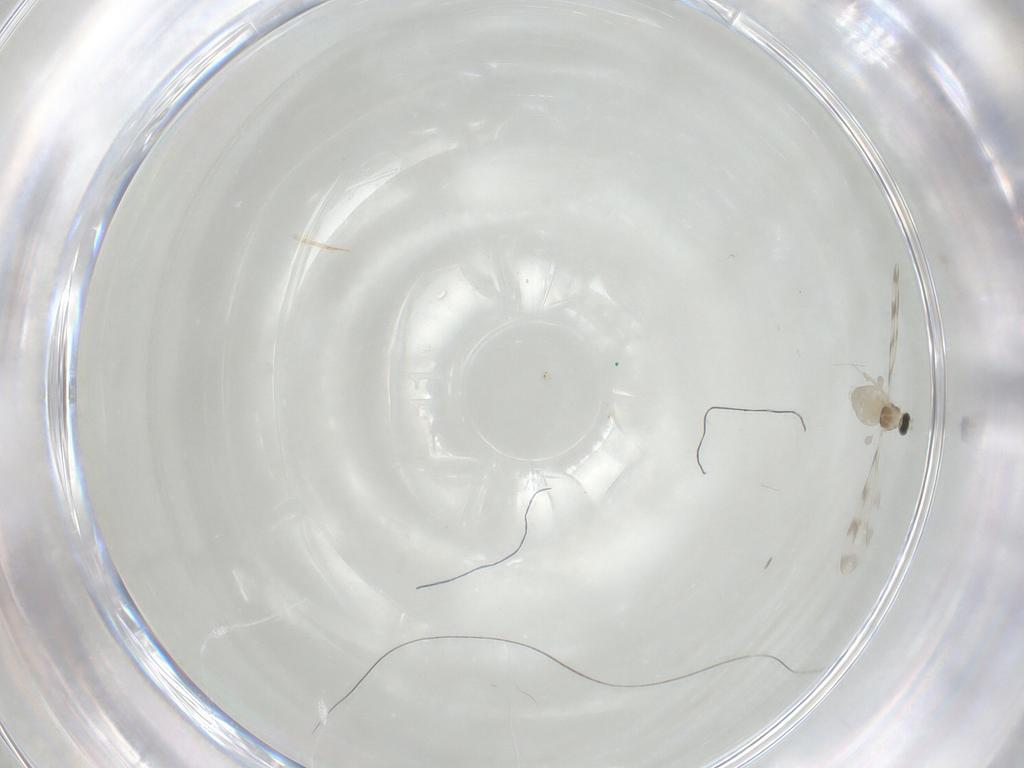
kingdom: Animalia
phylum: Arthropoda
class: Insecta
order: Diptera
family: Cecidomyiidae
